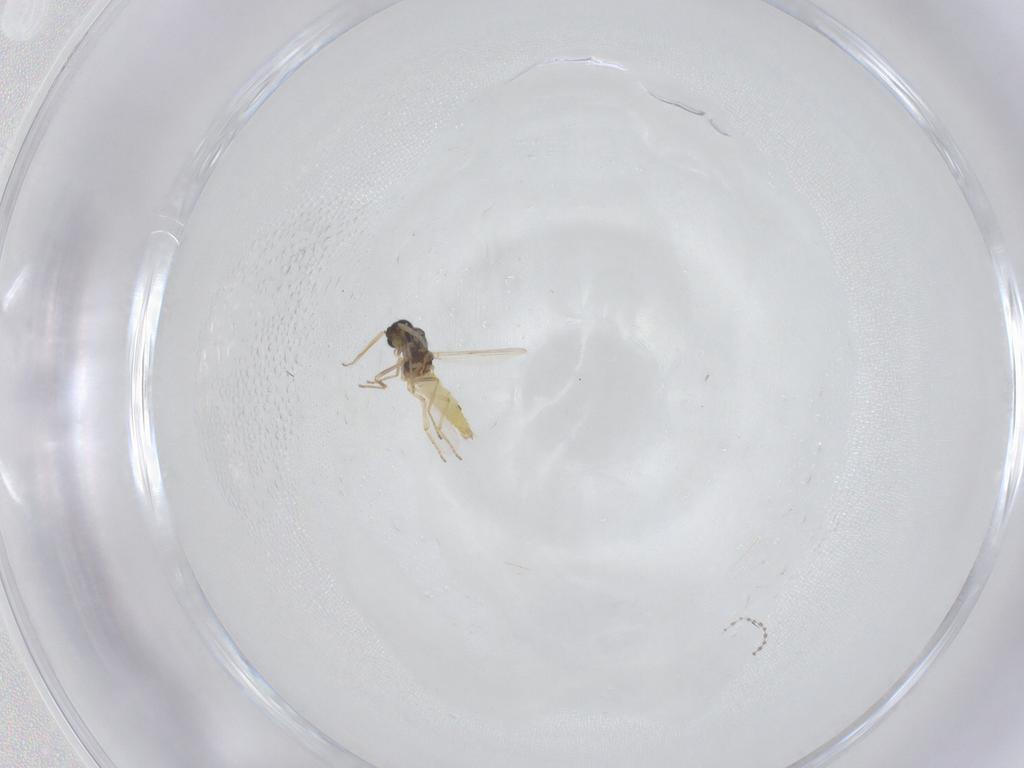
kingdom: Animalia
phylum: Arthropoda
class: Insecta
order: Diptera
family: Ceratopogonidae
